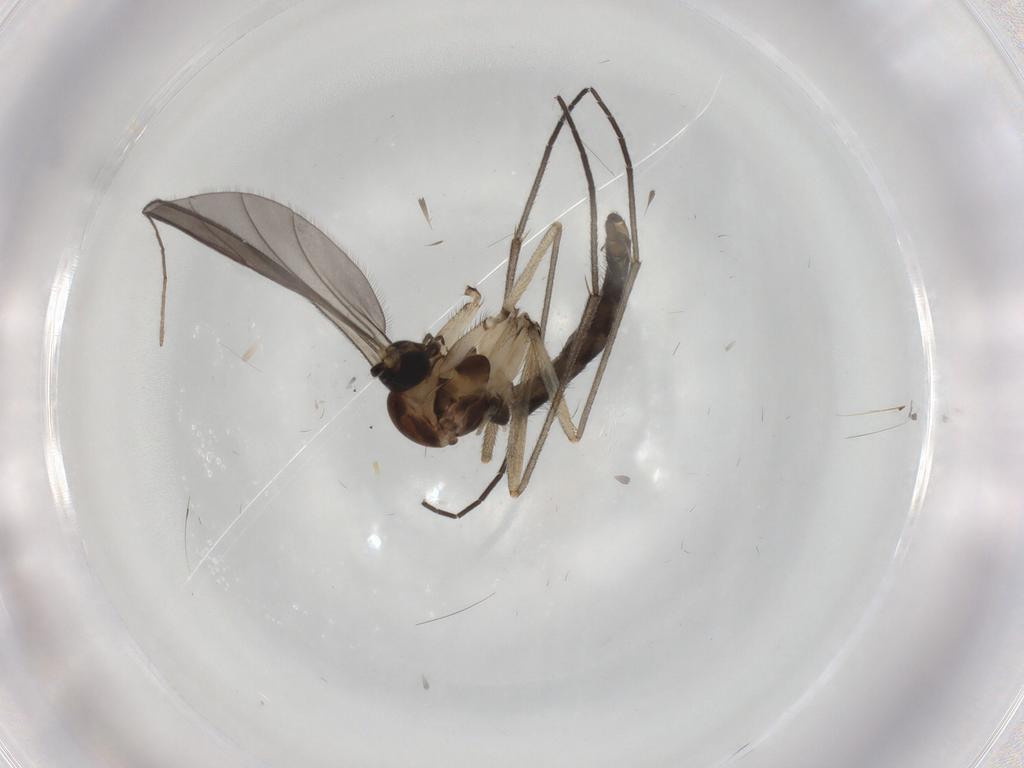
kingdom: Animalia
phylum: Arthropoda
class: Insecta
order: Diptera
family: Sciaridae
